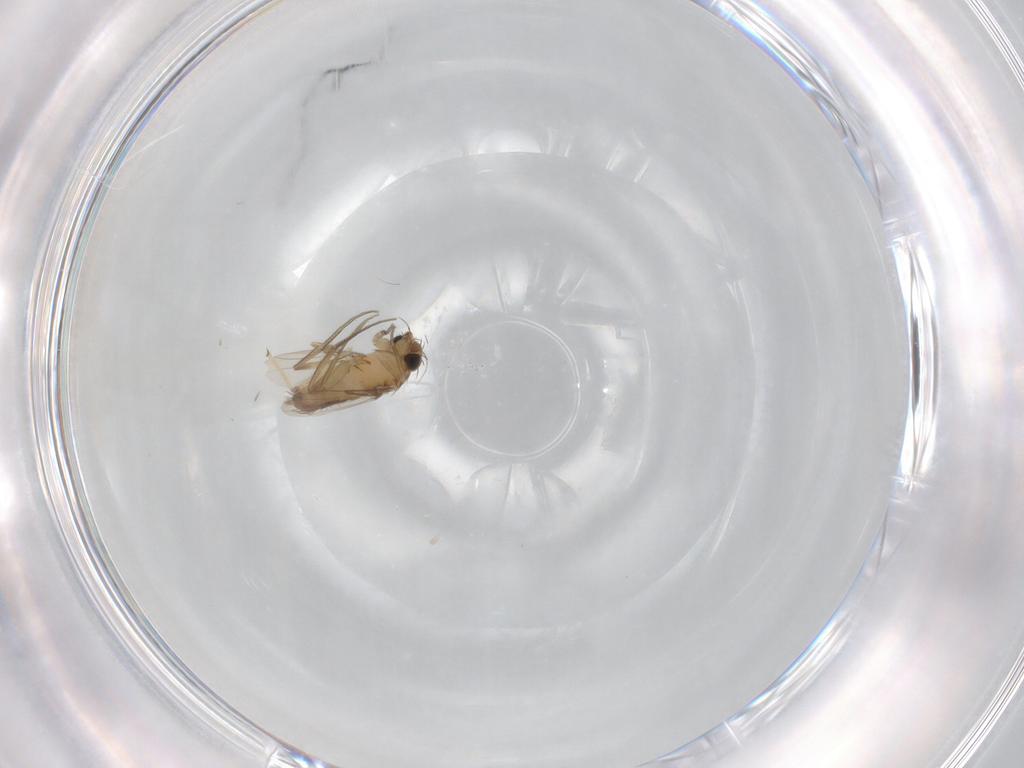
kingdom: Animalia
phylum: Arthropoda
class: Insecta
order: Diptera
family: Phoridae
